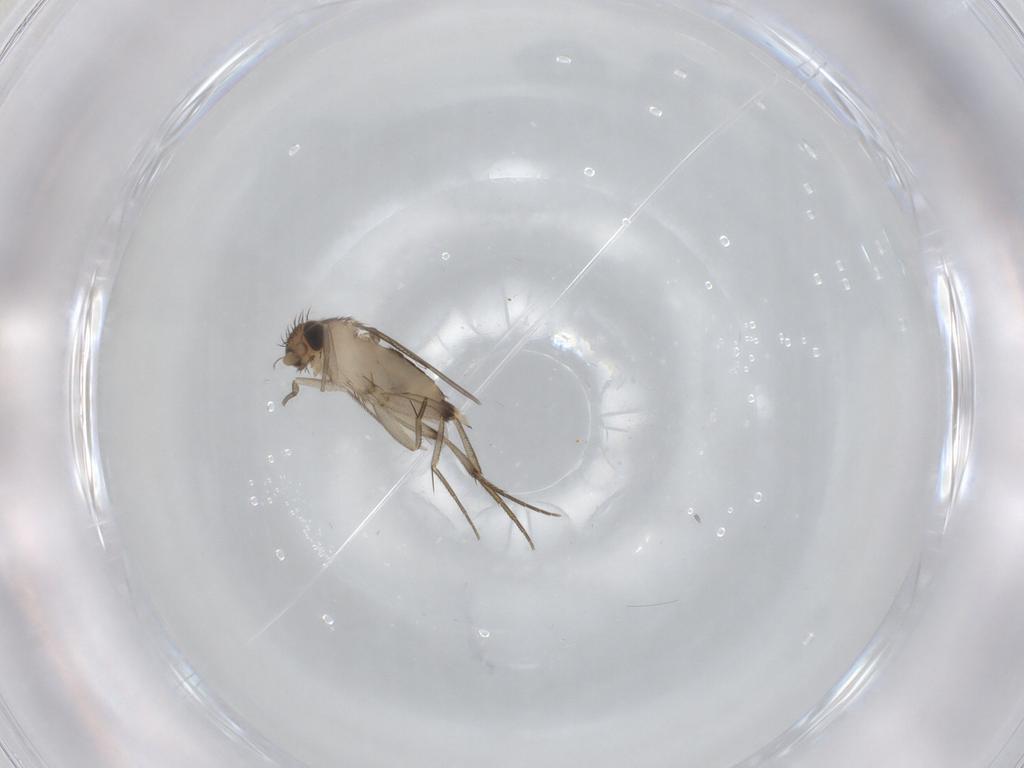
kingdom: Animalia
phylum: Arthropoda
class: Insecta
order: Diptera
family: Phoridae
